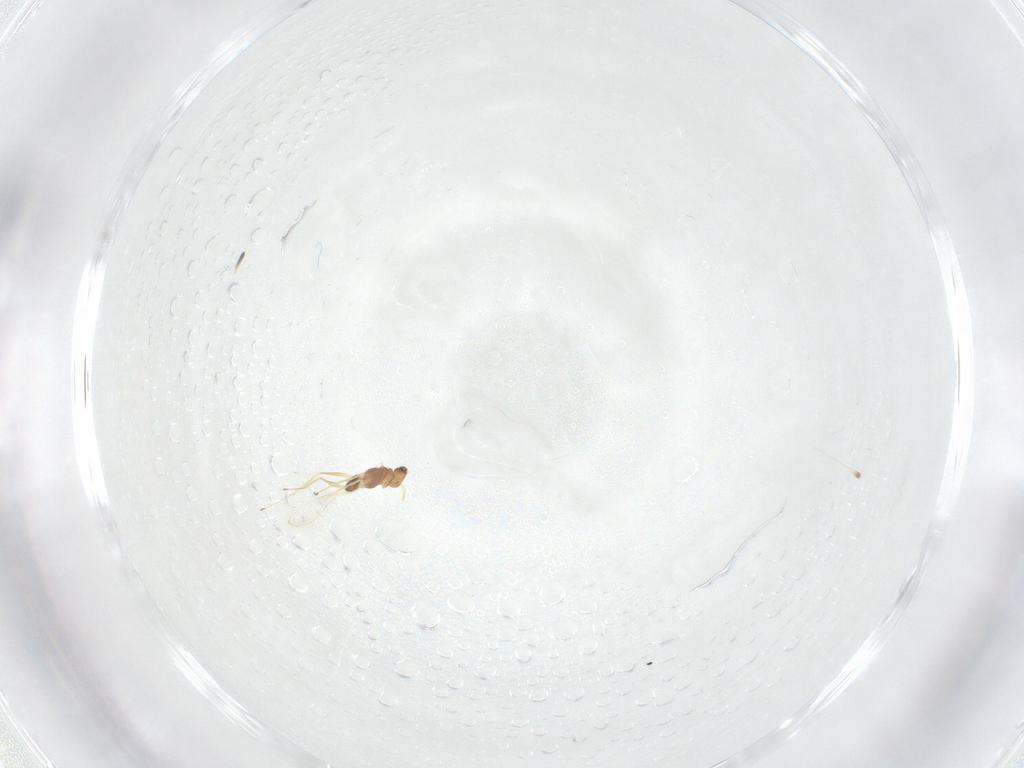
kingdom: Animalia
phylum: Arthropoda
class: Insecta
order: Hymenoptera
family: Mymaridae
